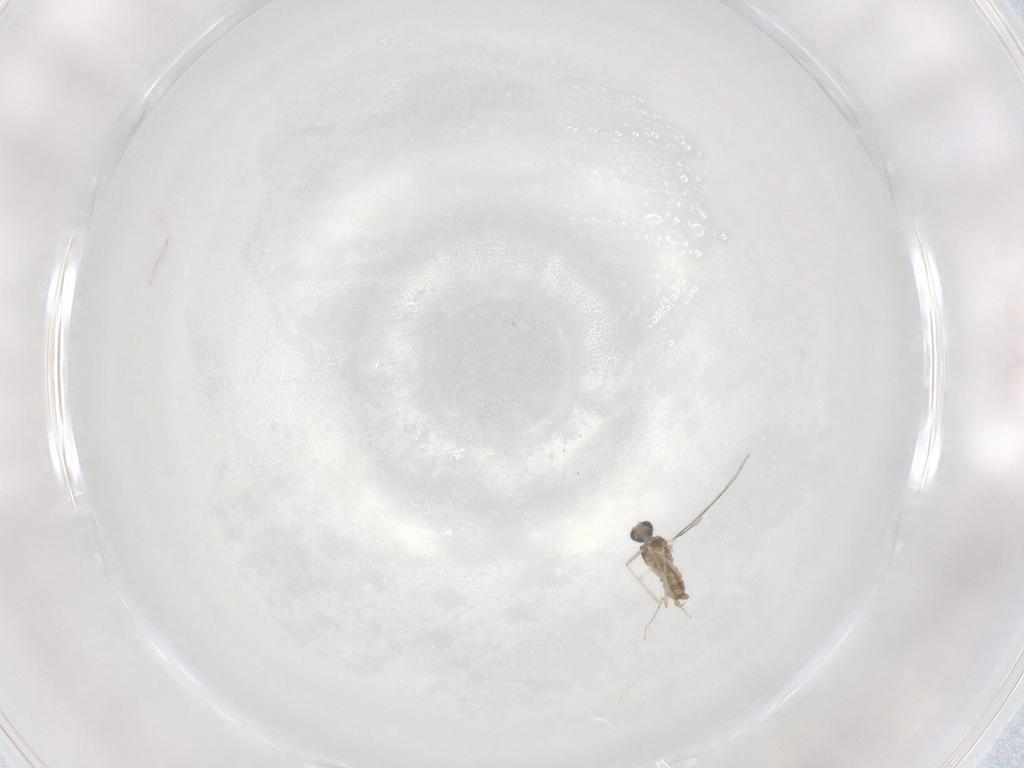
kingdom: Animalia
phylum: Arthropoda
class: Insecta
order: Diptera
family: Cecidomyiidae
